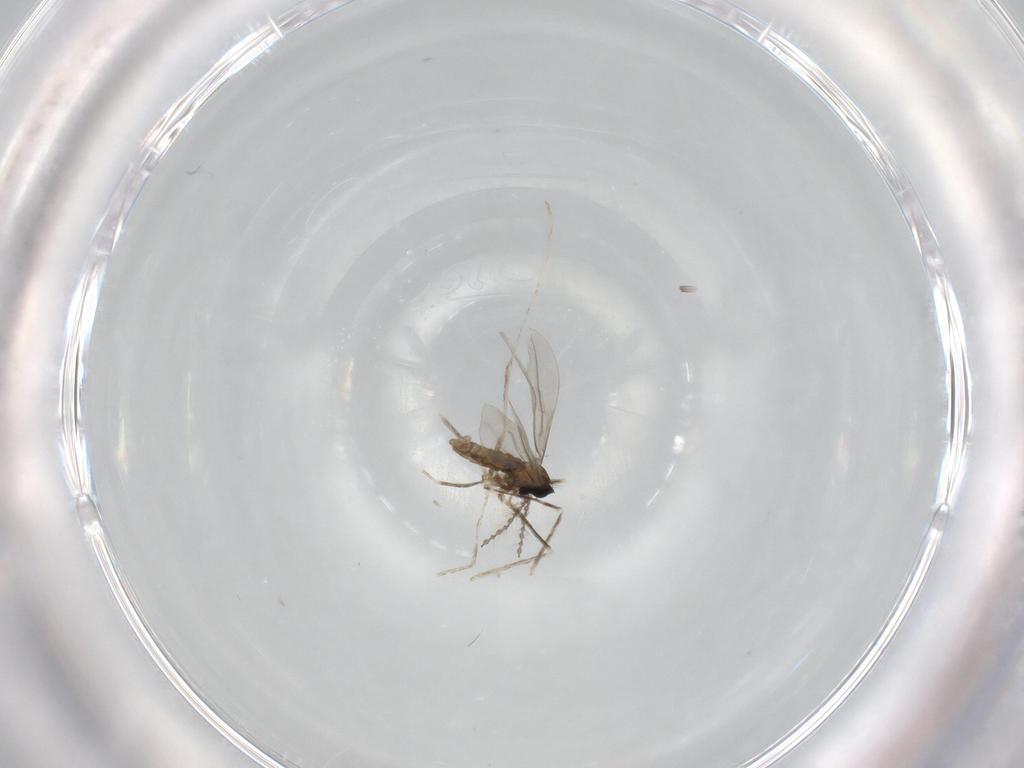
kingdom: Animalia
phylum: Arthropoda
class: Insecta
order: Diptera
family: Cecidomyiidae
